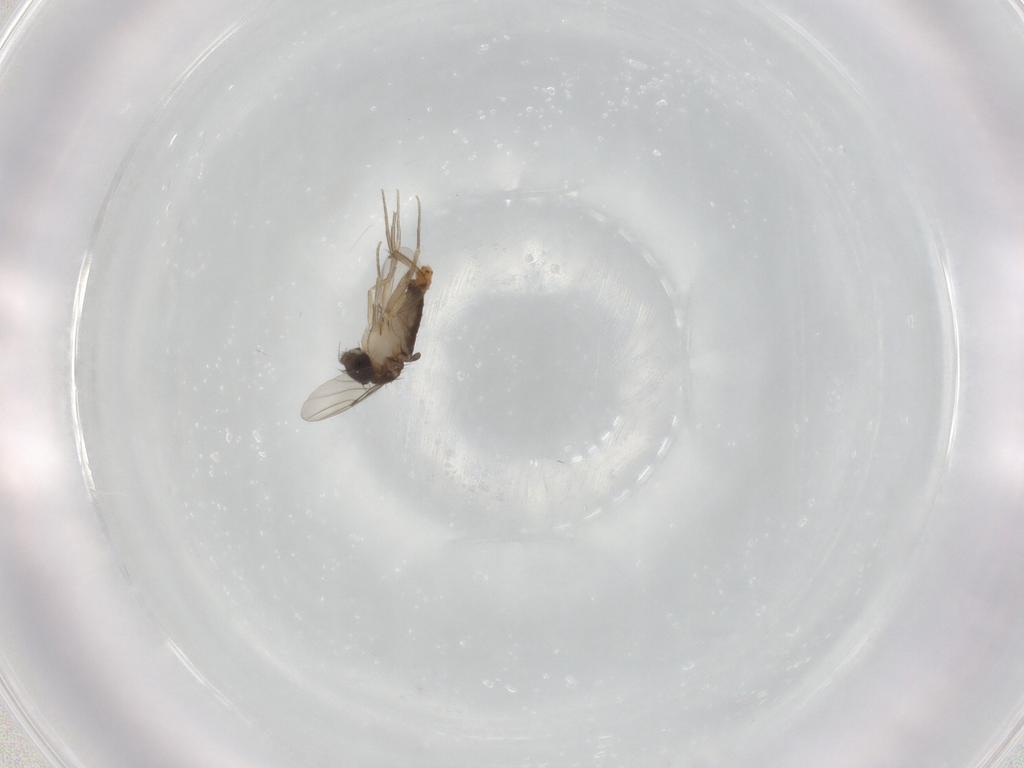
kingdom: Animalia
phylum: Arthropoda
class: Insecta
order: Diptera
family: Phoridae
